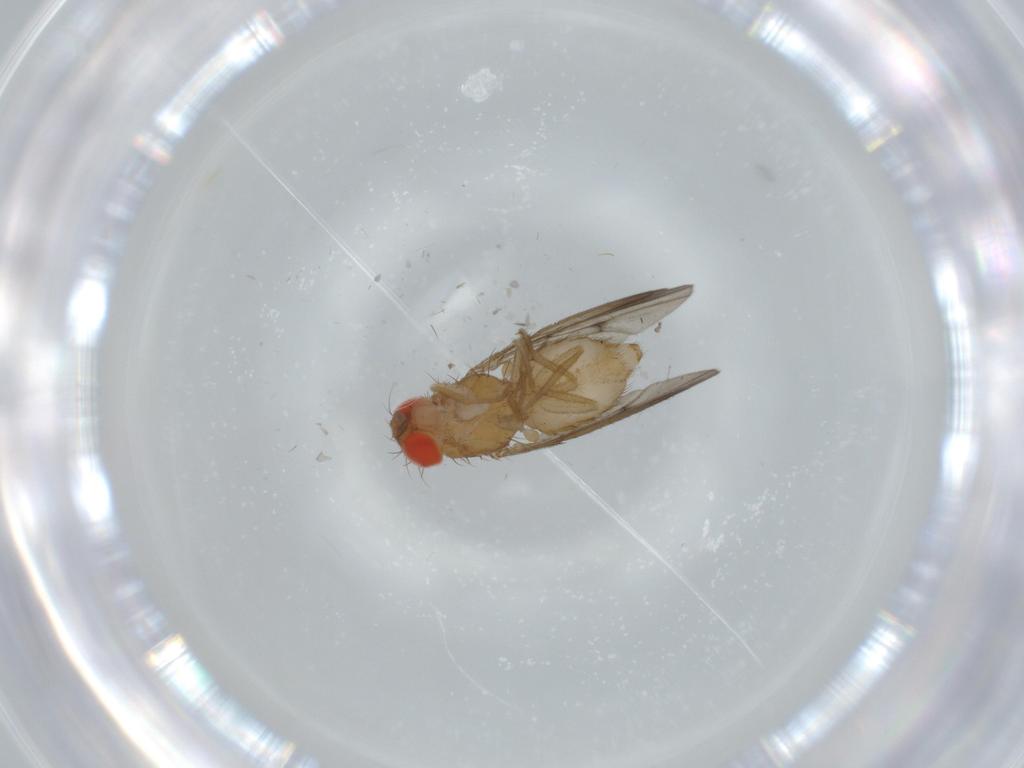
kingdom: Animalia
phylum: Arthropoda
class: Insecta
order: Diptera
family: Drosophilidae
